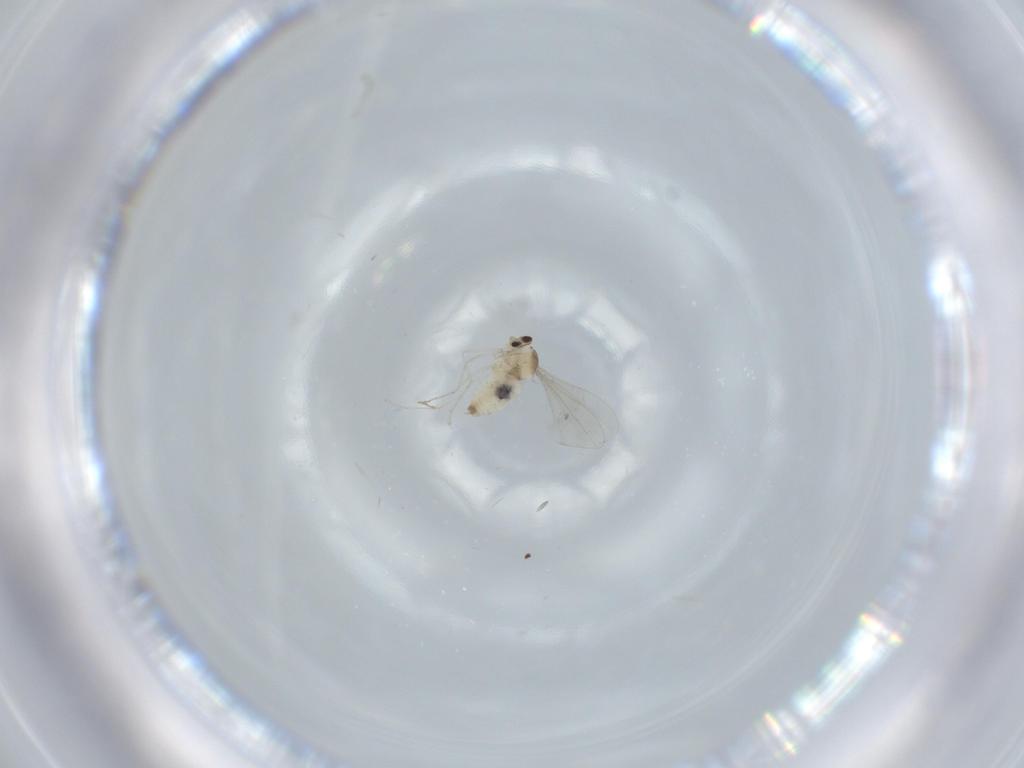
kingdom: Animalia
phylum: Arthropoda
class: Insecta
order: Diptera
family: Cecidomyiidae
